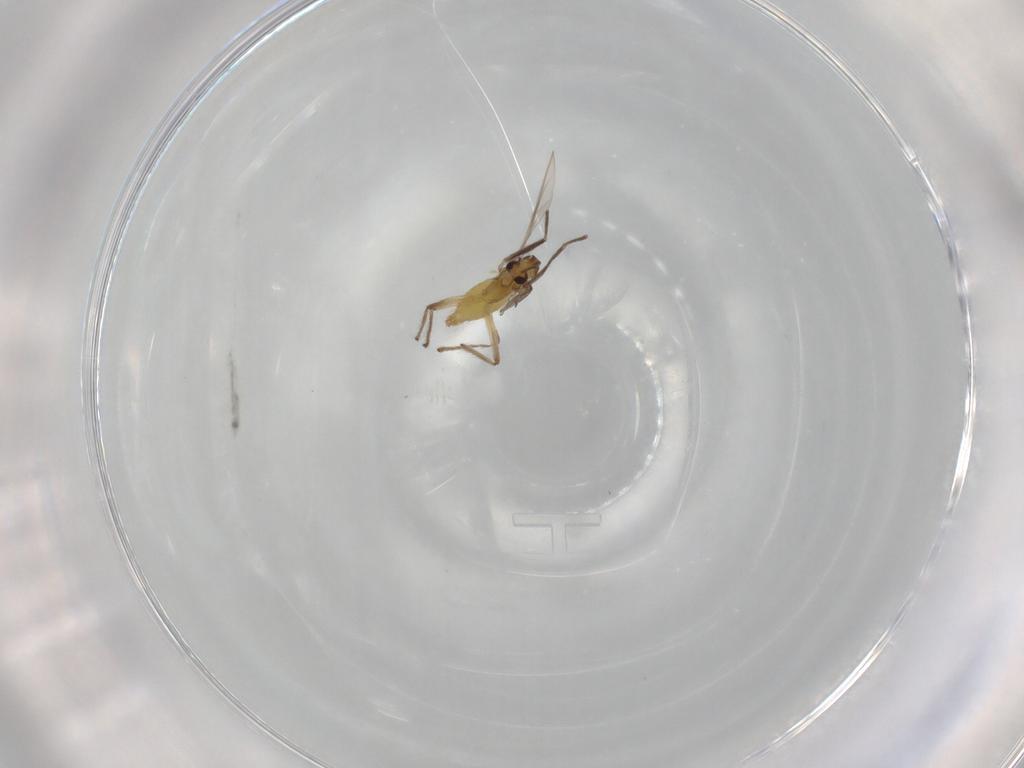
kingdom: Animalia
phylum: Arthropoda
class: Insecta
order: Diptera
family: Chironomidae
